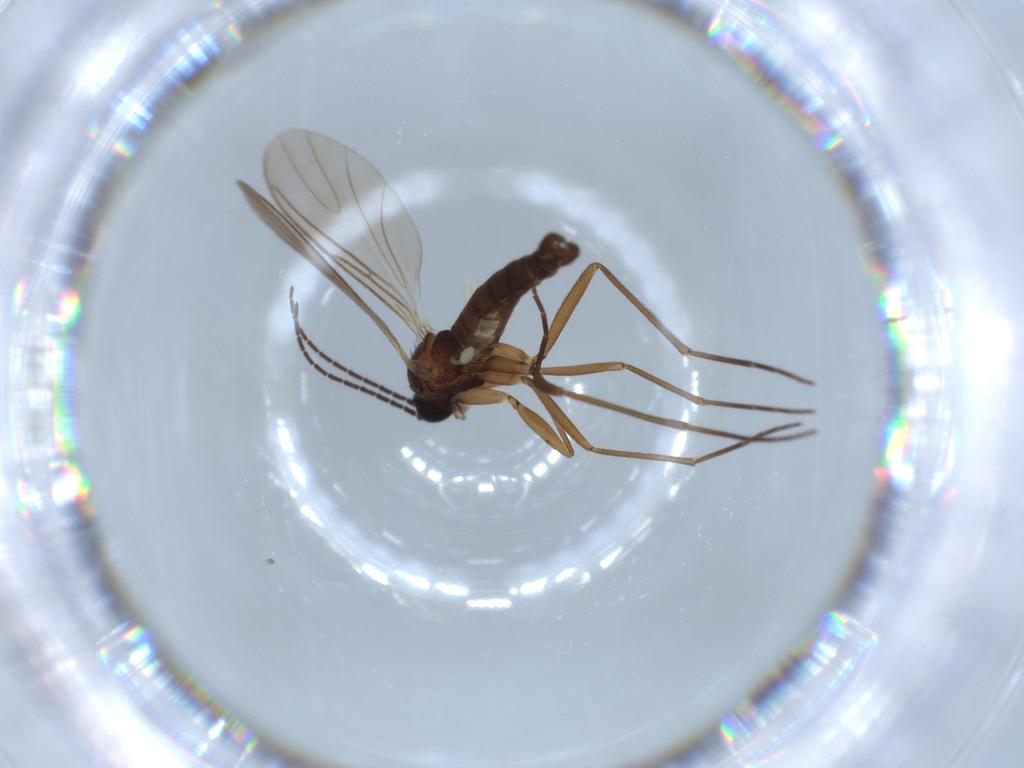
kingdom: Animalia
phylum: Arthropoda
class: Insecta
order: Diptera
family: Sciaridae
